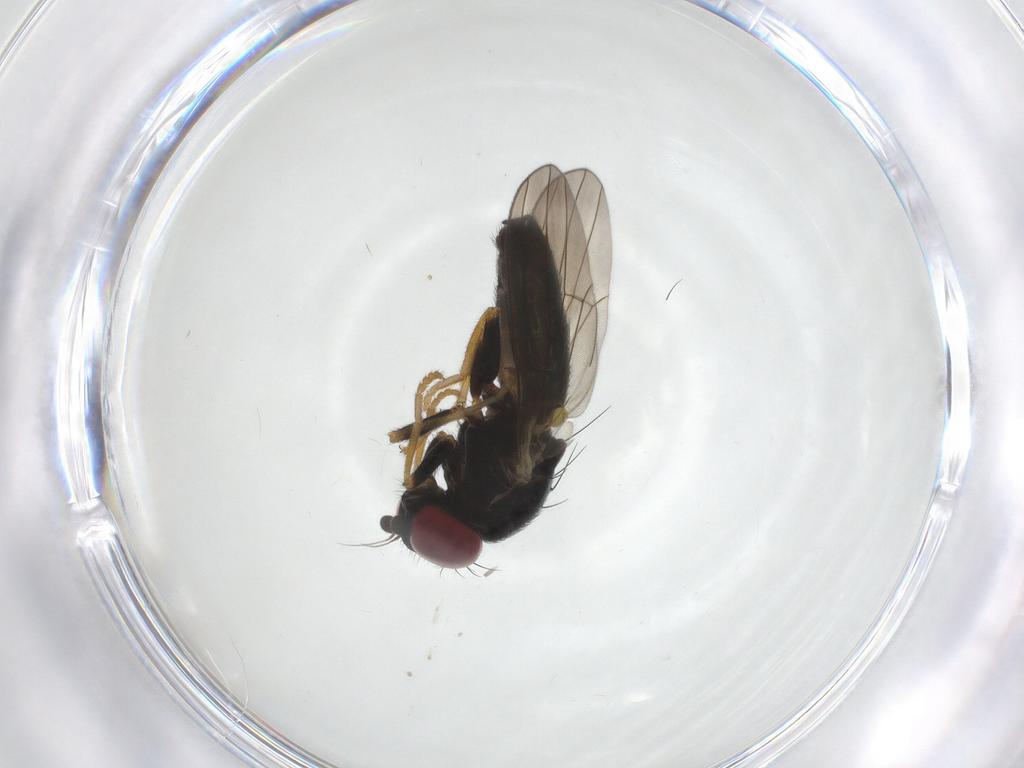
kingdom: Animalia
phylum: Arthropoda
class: Insecta
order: Diptera
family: Chamaemyiidae
